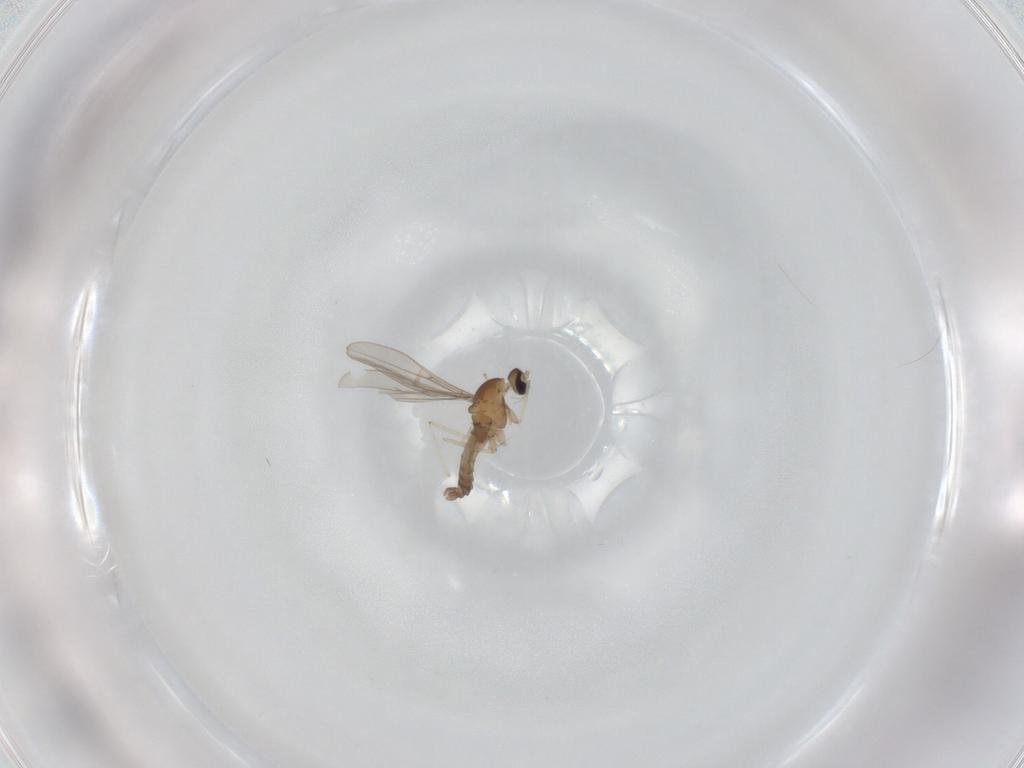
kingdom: Animalia
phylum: Arthropoda
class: Insecta
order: Diptera
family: Cecidomyiidae
